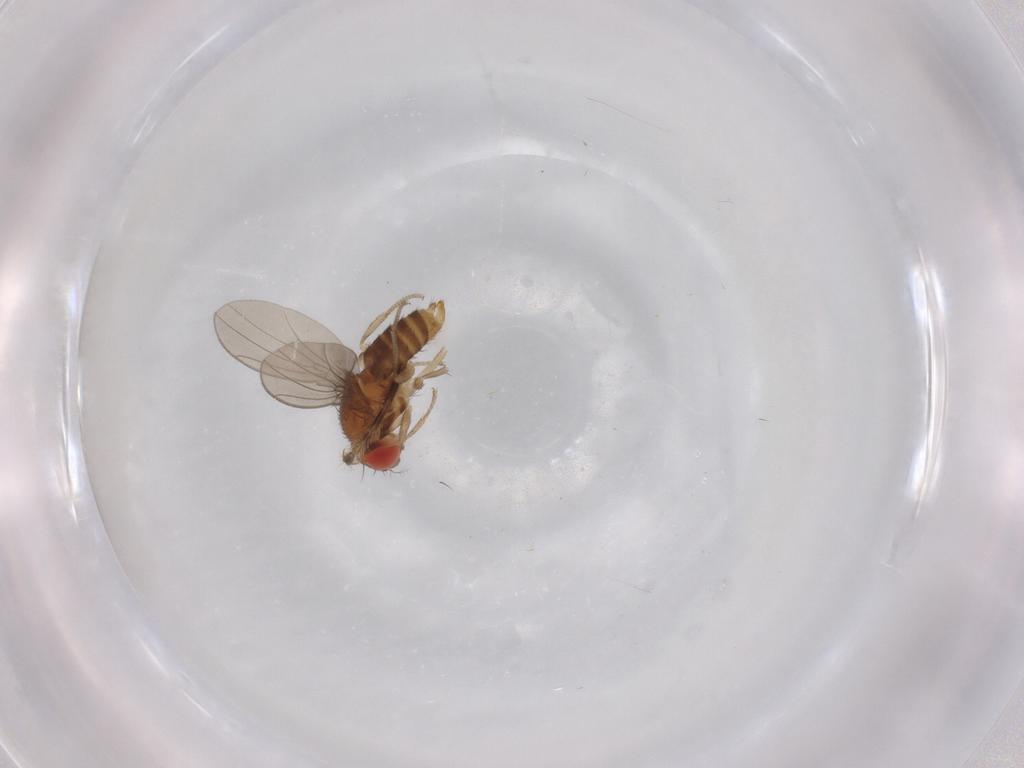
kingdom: Animalia
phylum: Arthropoda
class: Insecta
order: Diptera
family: Drosophilidae
